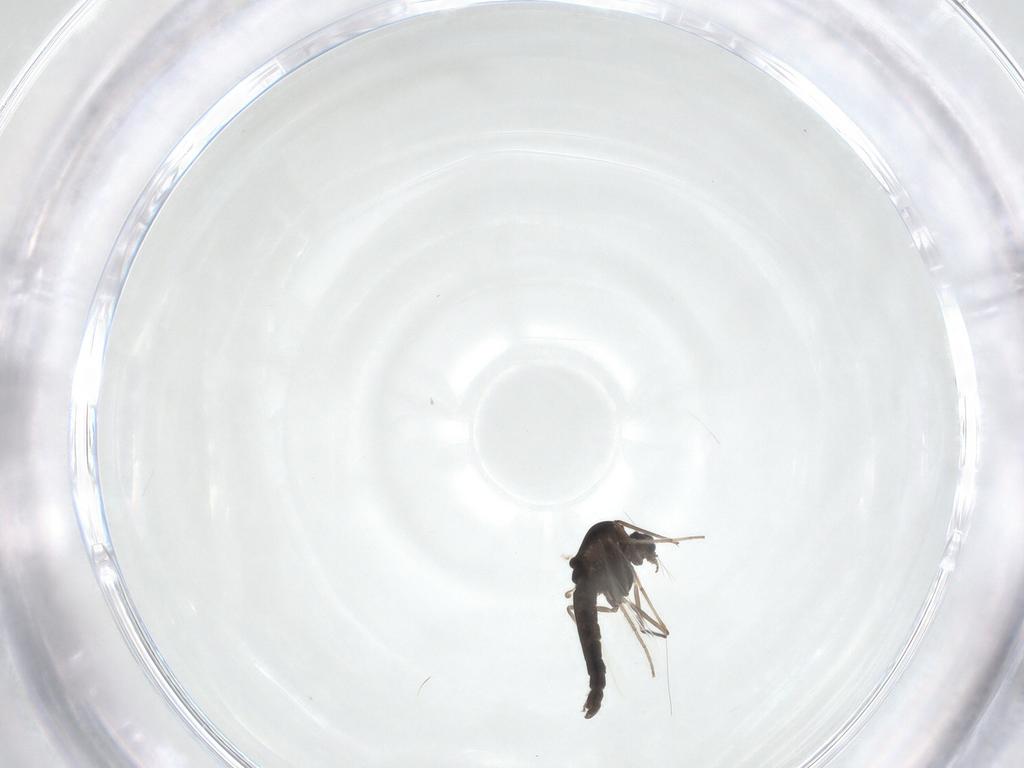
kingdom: Animalia
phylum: Arthropoda
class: Insecta
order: Diptera
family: Chironomidae
